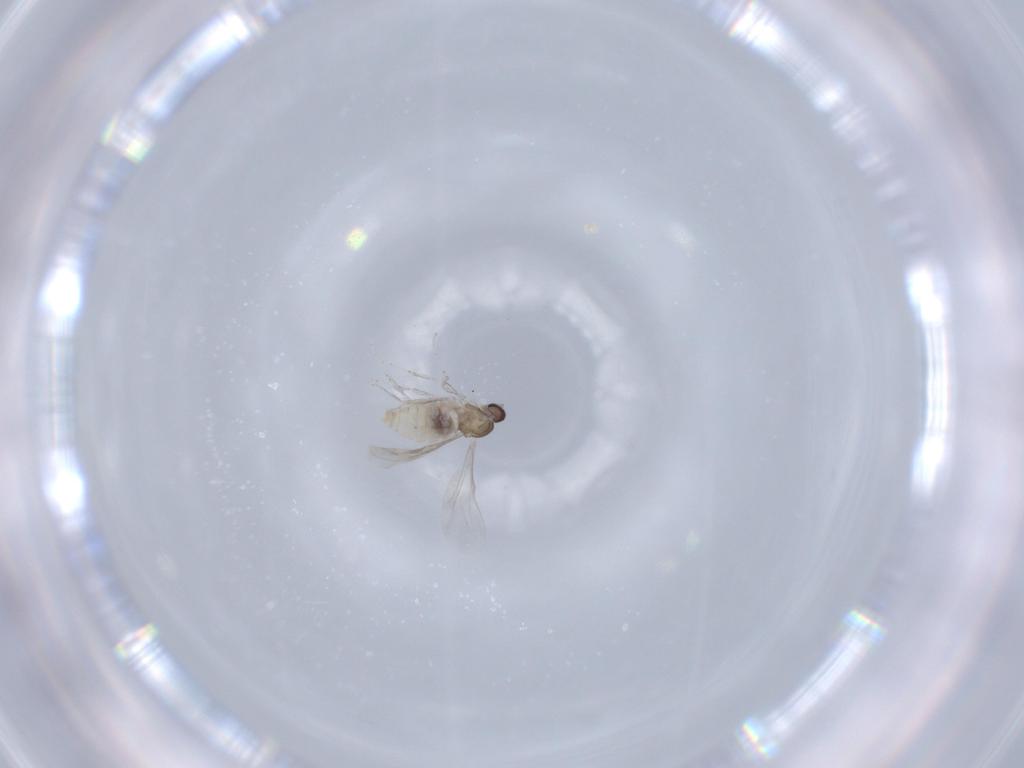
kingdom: Animalia
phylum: Arthropoda
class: Insecta
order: Diptera
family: Cecidomyiidae
